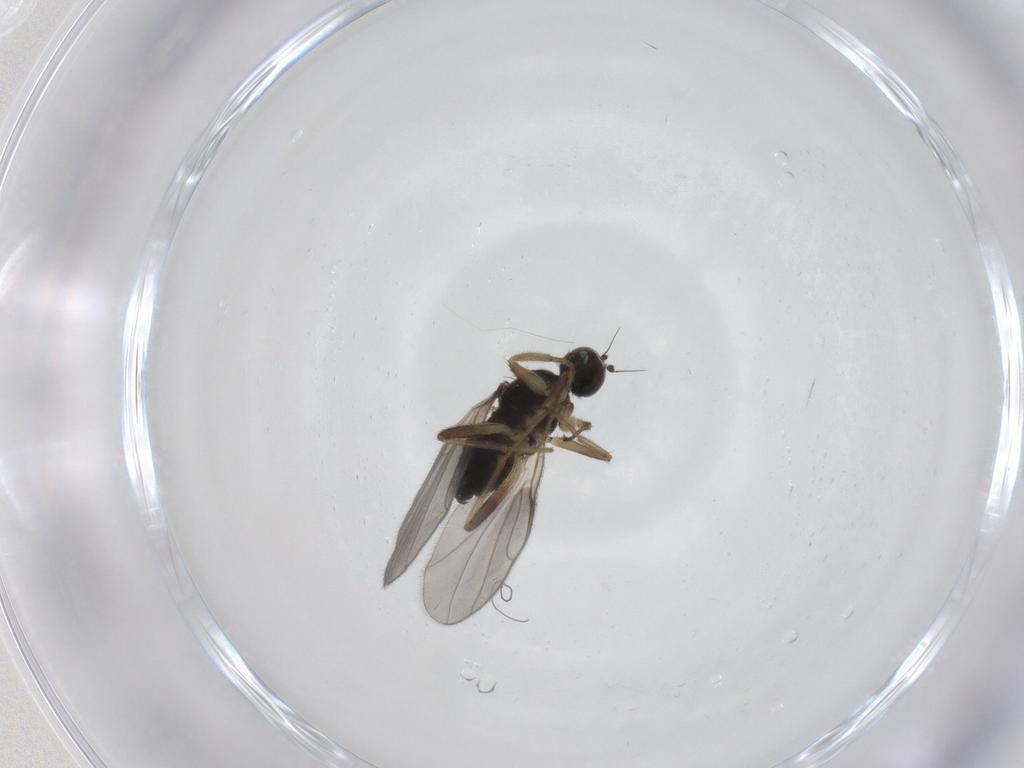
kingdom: Animalia
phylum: Arthropoda
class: Insecta
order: Diptera
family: Hybotidae
